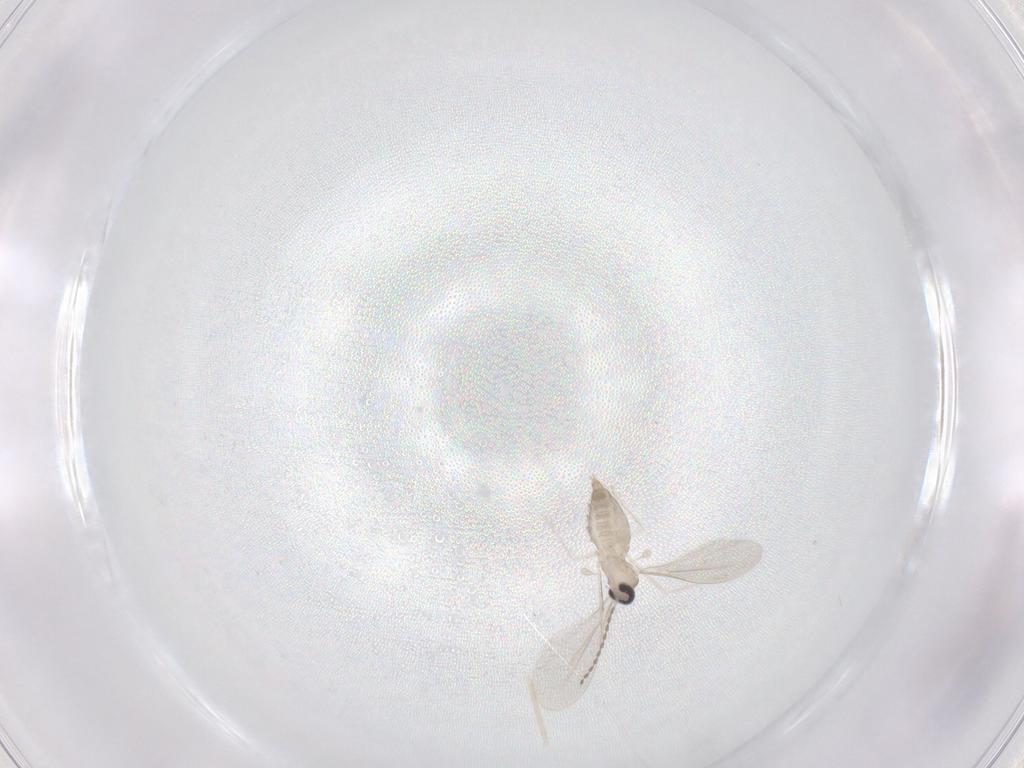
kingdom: Animalia
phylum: Arthropoda
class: Insecta
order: Diptera
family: Cecidomyiidae
